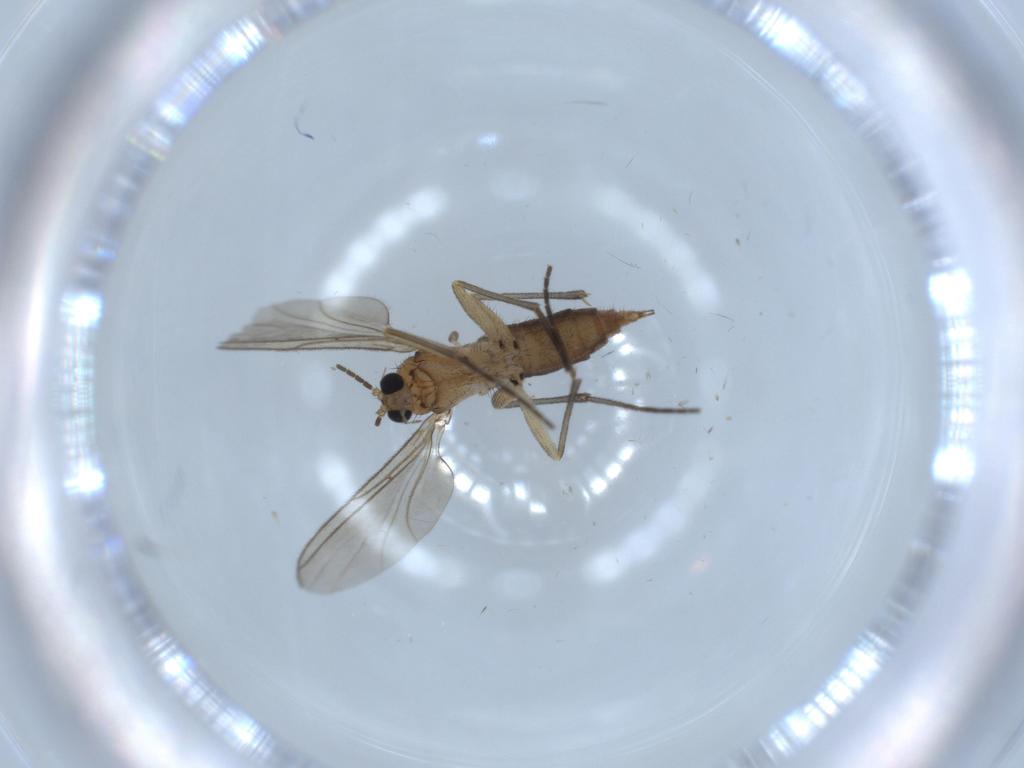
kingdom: Animalia
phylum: Arthropoda
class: Insecta
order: Diptera
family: Sciaridae
